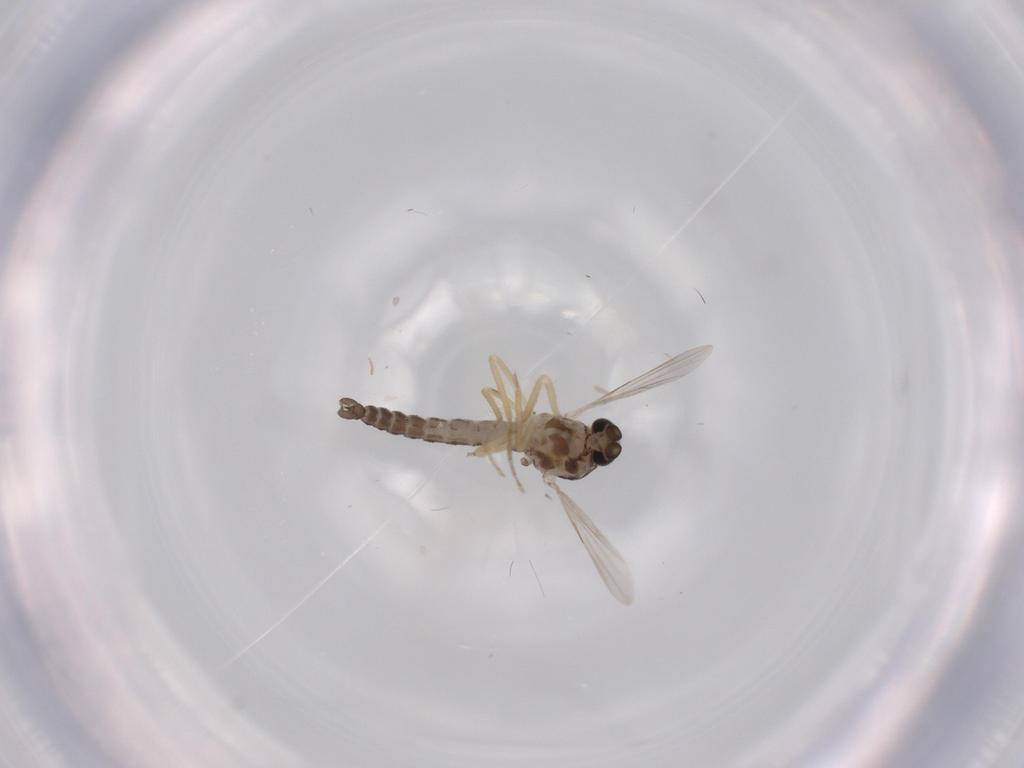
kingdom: Animalia
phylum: Arthropoda
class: Insecta
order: Diptera
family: Ceratopogonidae
